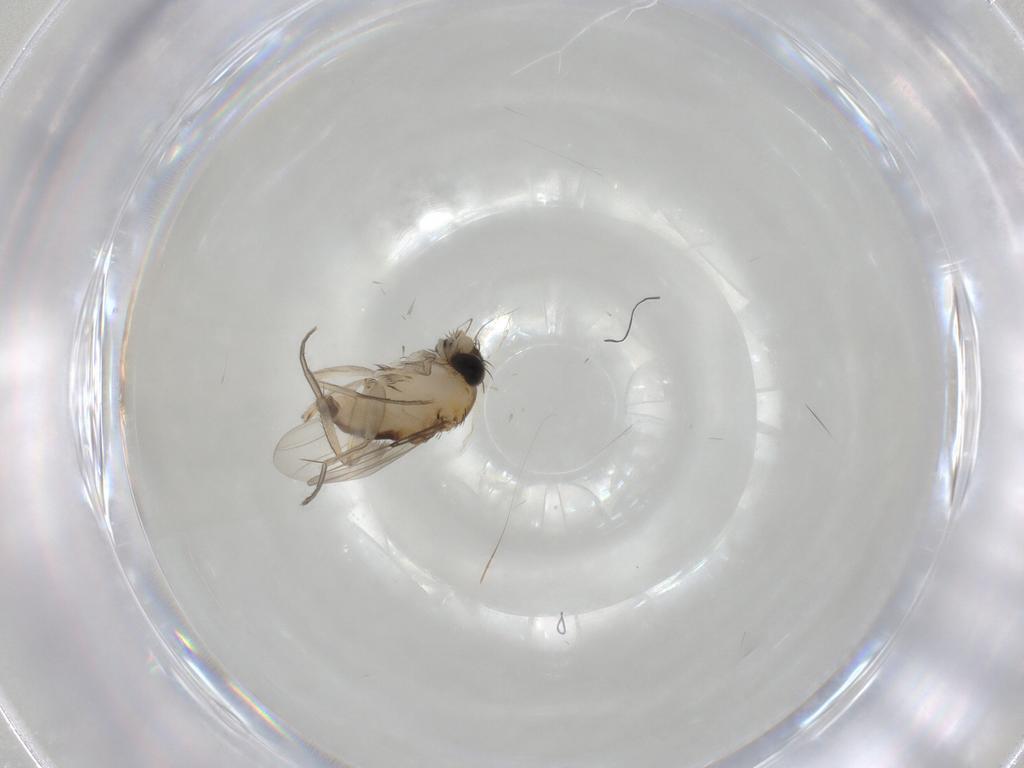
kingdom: Animalia
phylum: Arthropoda
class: Insecta
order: Diptera
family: Phoridae
